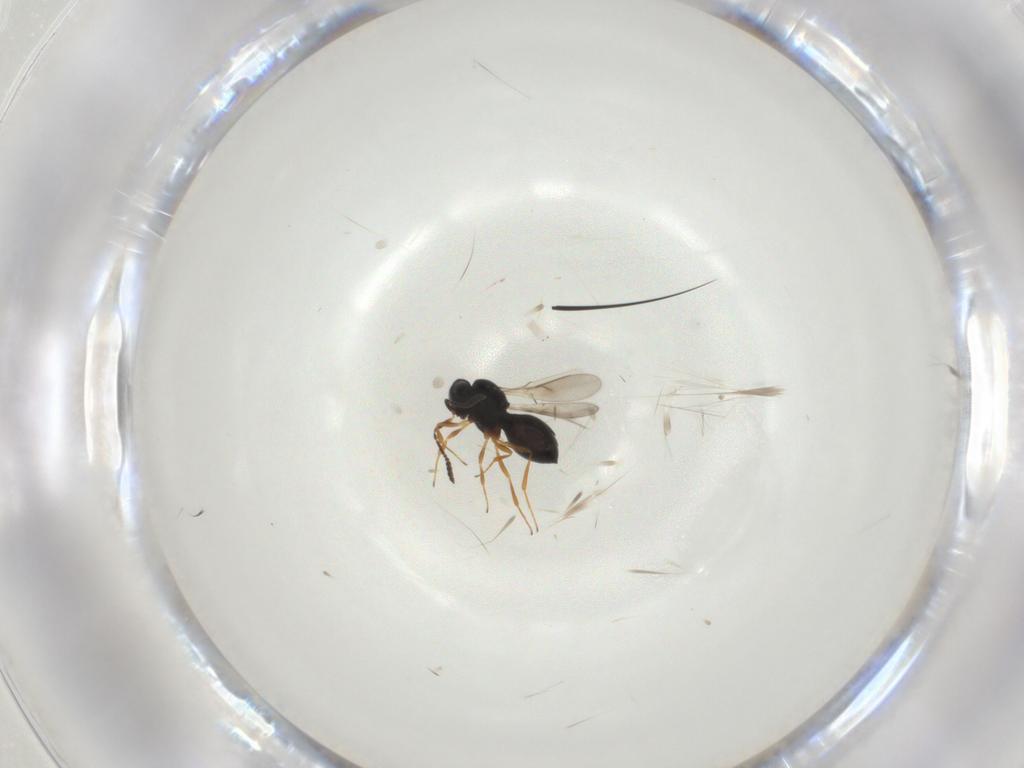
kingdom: Animalia
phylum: Arthropoda
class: Insecta
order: Hymenoptera
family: Scelionidae
